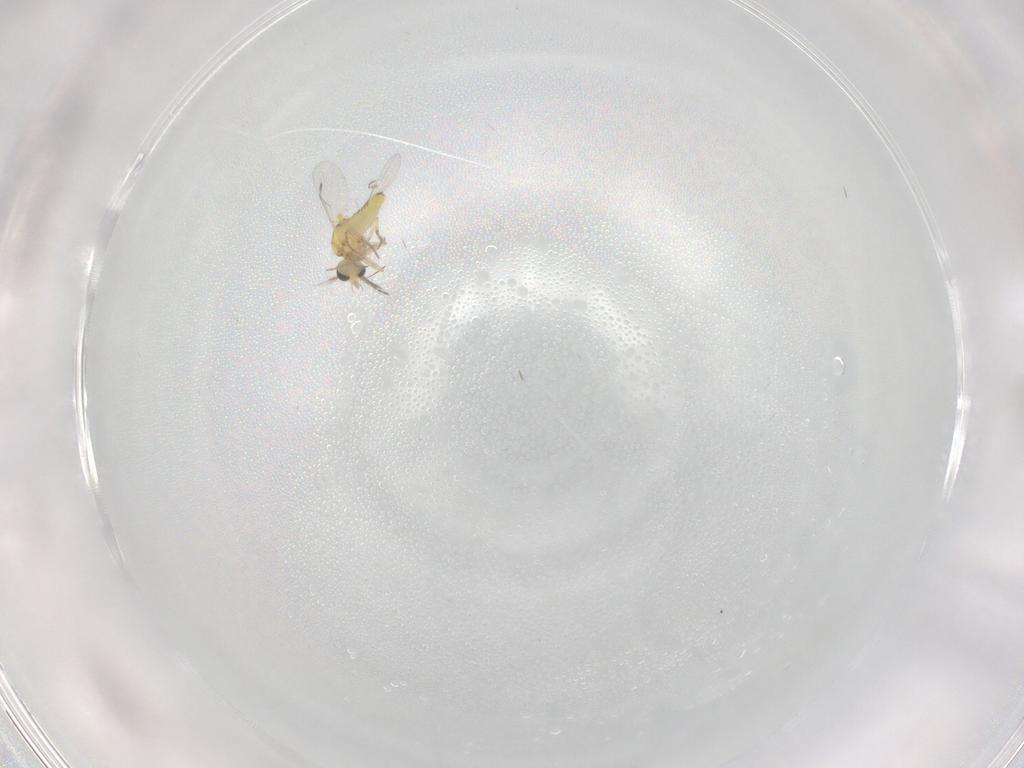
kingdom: Animalia
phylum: Arthropoda
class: Insecta
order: Diptera
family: Ceratopogonidae
